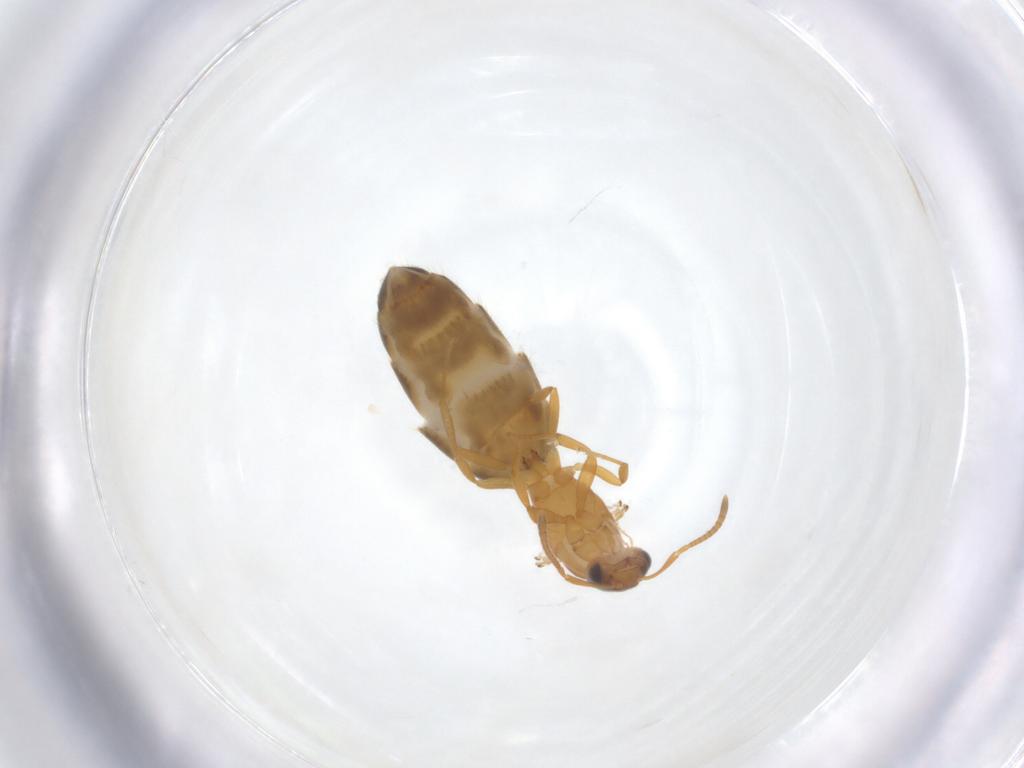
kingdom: Animalia
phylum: Arthropoda
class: Insecta
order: Hymenoptera
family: Formicidae
